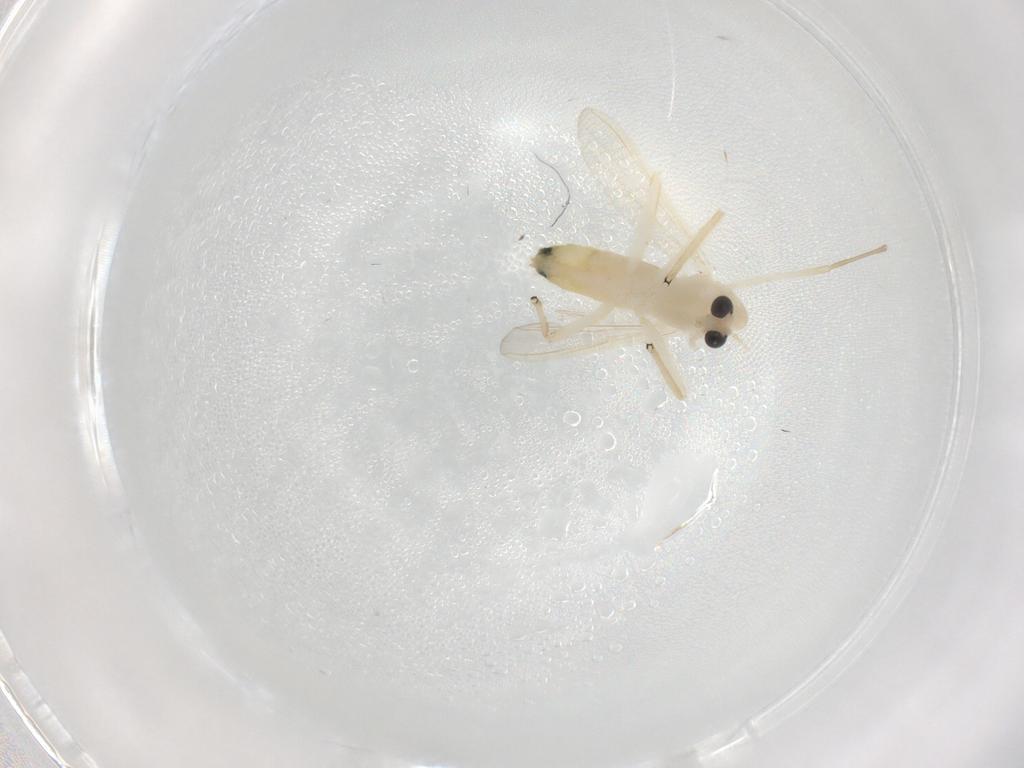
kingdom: Animalia
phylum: Arthropoda
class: Insecta
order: Diptera
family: Chironomidae
